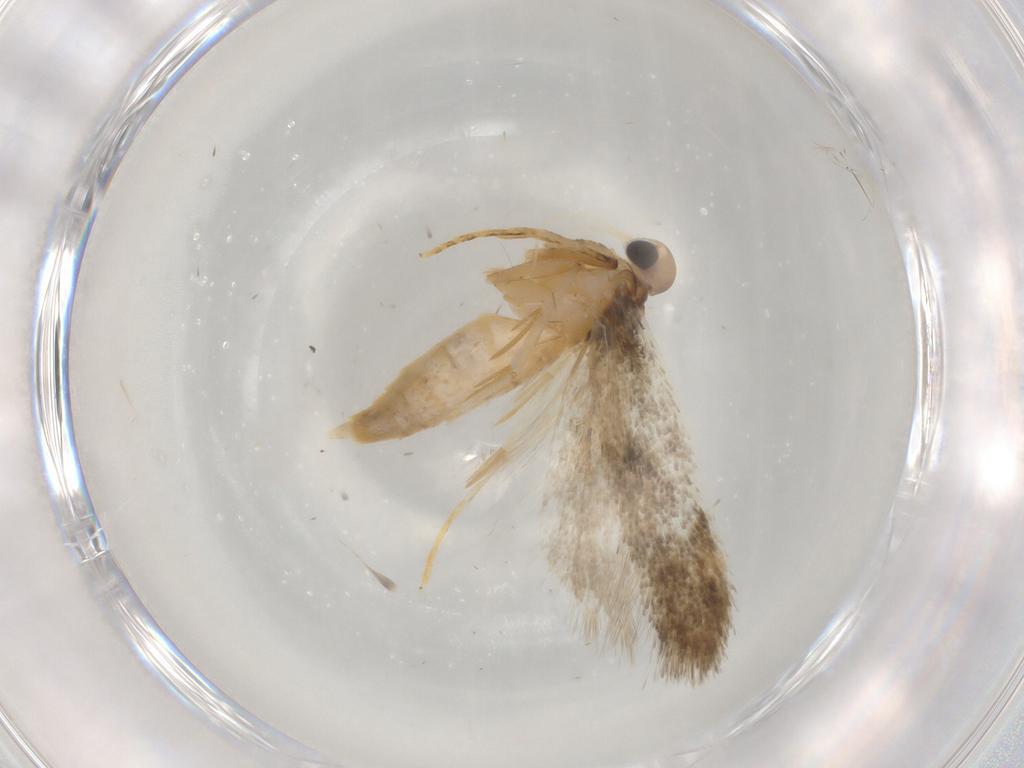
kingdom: Animalia
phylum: Arthropoda
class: Insecta
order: Lepidoptera
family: Autostichidae
